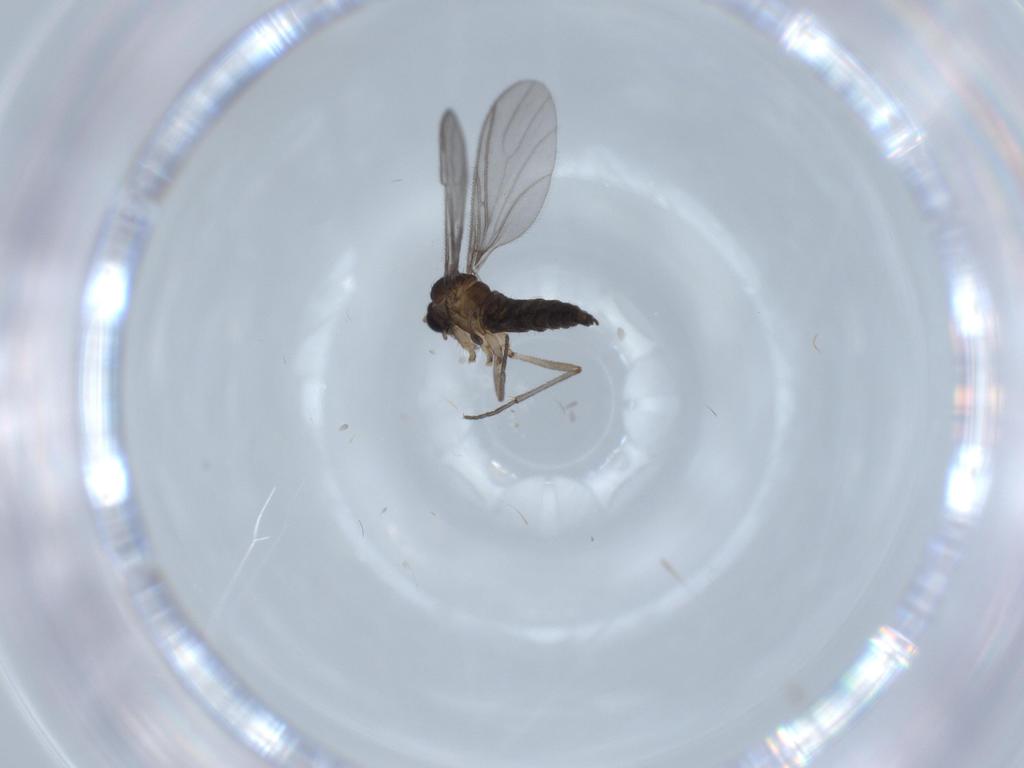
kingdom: Animalia
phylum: Arthropoda
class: Insecta
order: Diptera
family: Sciaridae
